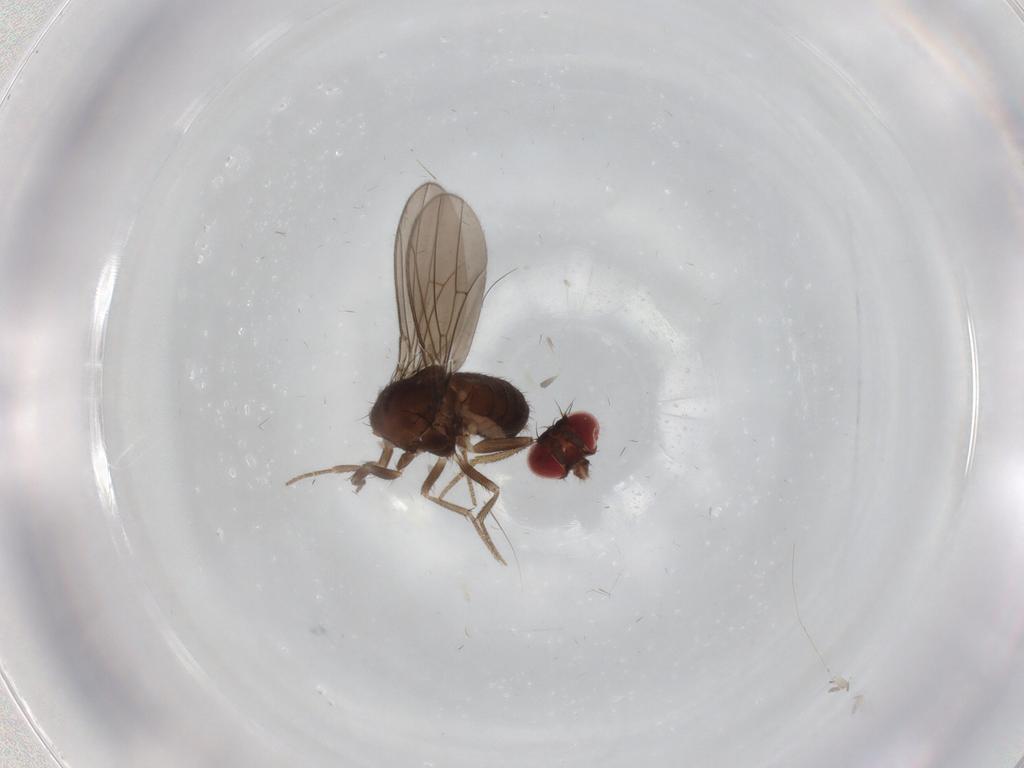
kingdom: Animalia
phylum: Arthropoda
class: Insecta
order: Diptera
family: Drosophilidae
